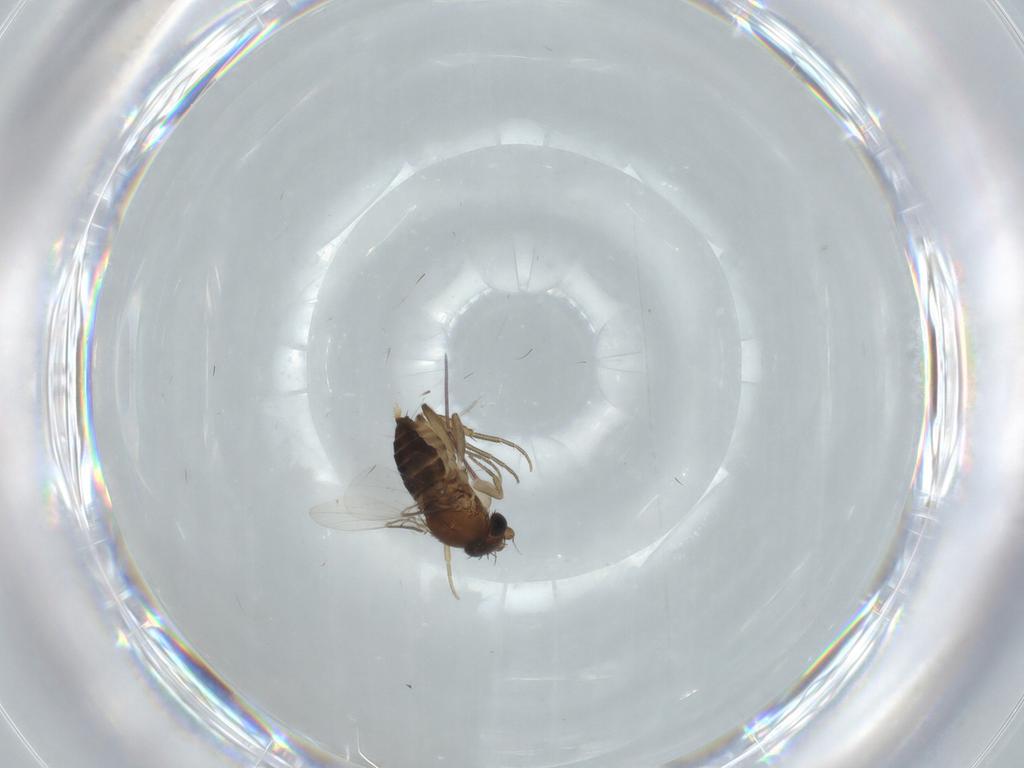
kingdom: Animalia
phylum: Arthropoda
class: Insecta
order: Diptera
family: Phoridae
